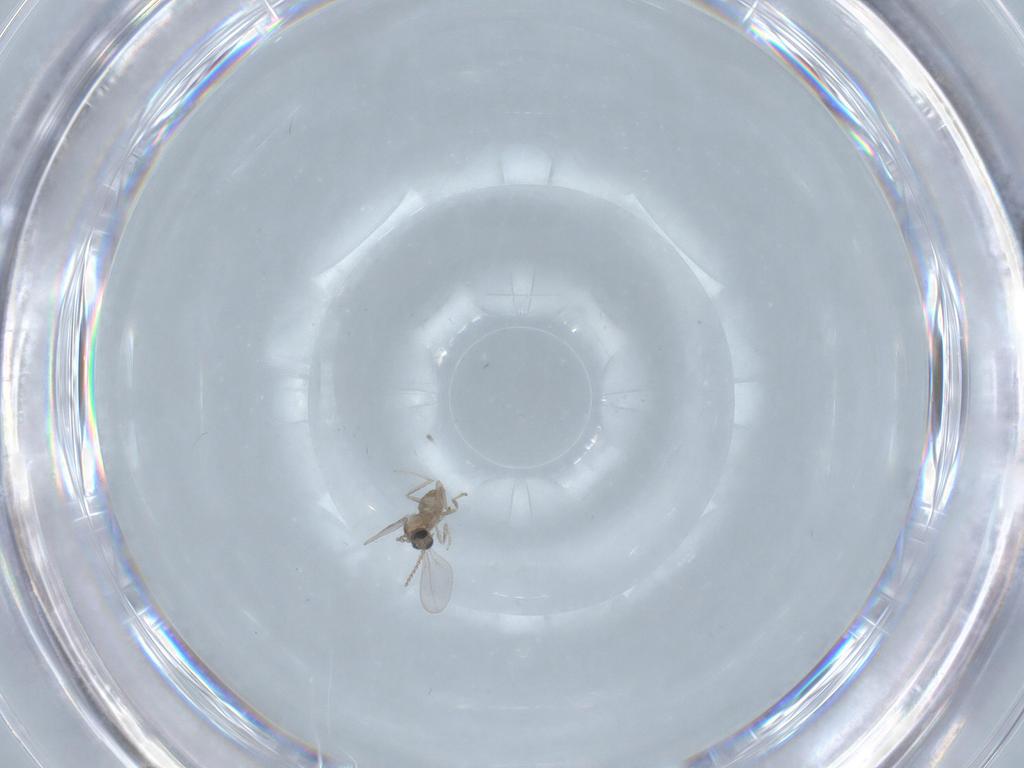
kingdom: Animalia
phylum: Arthropoda
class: Insecta
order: Diptera
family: Cecidomyiidae
